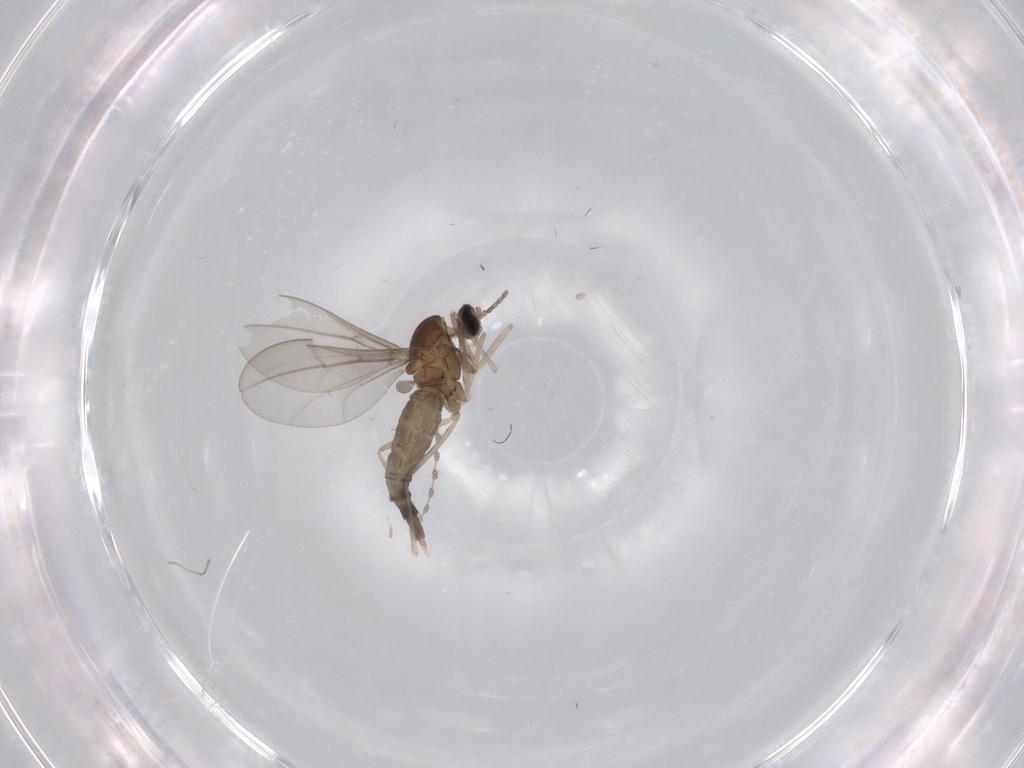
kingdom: Animalia
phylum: Arthropoda
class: Insecta
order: Diptera
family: Cecidomyiidae
